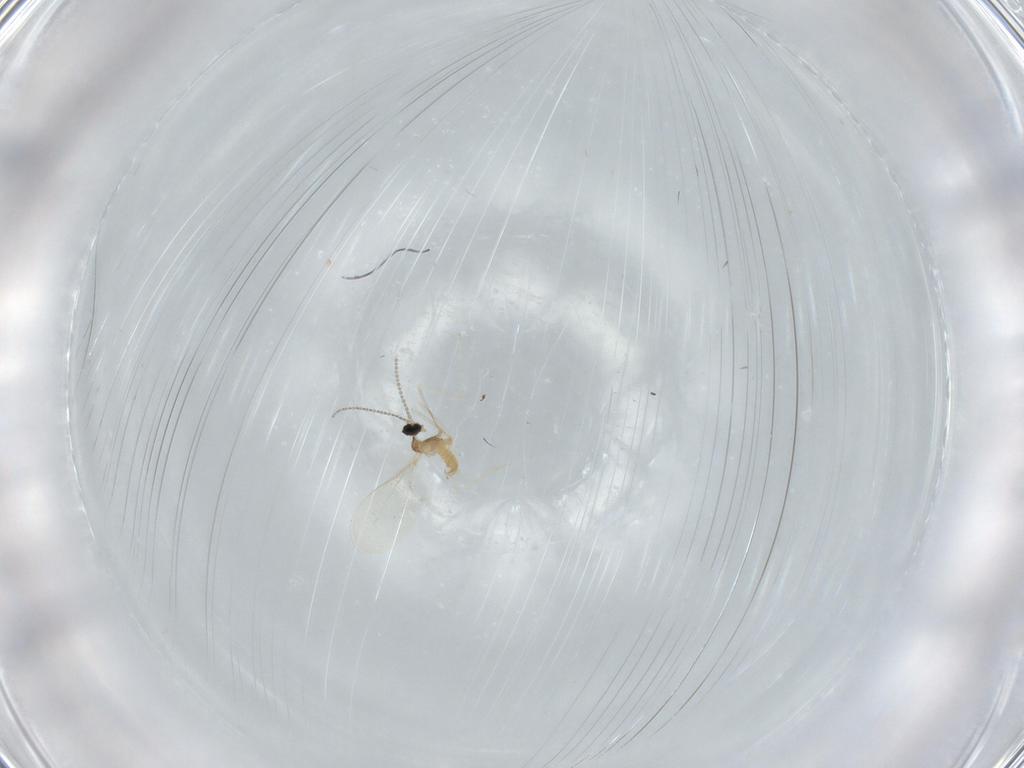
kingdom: Animalia
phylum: Arthropoda
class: Insecta
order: Diptera
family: Cecidomyiidae
